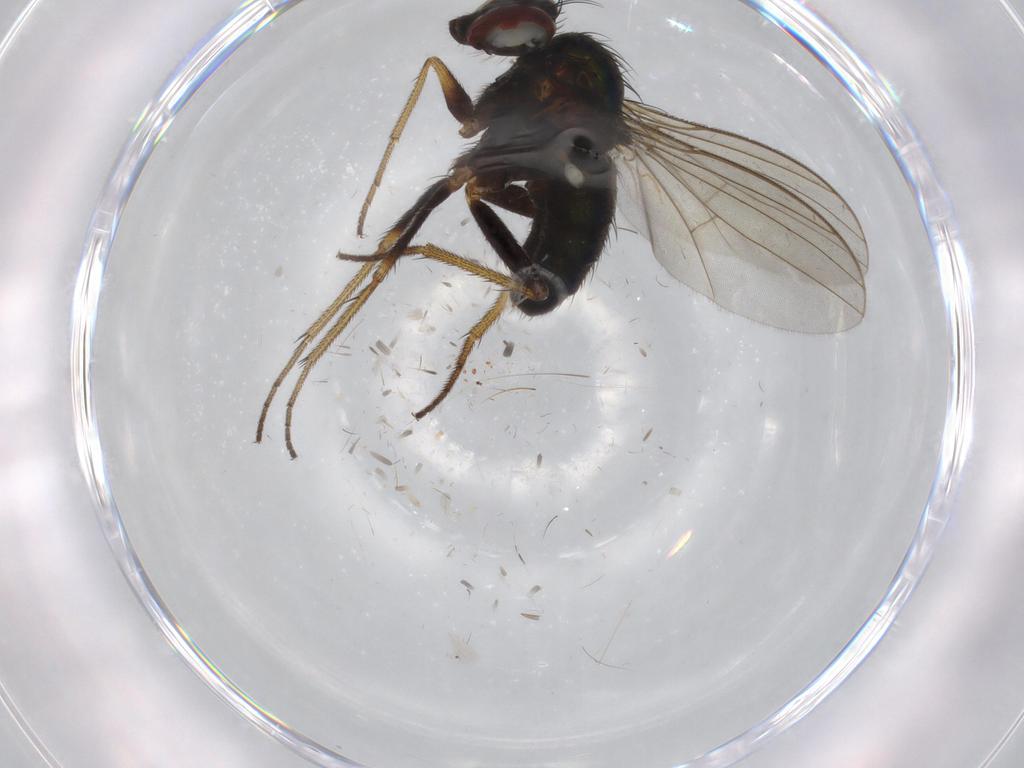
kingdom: Animalia
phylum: Arthropoda
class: Insecta
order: Diptera
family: Dolichopodidae
